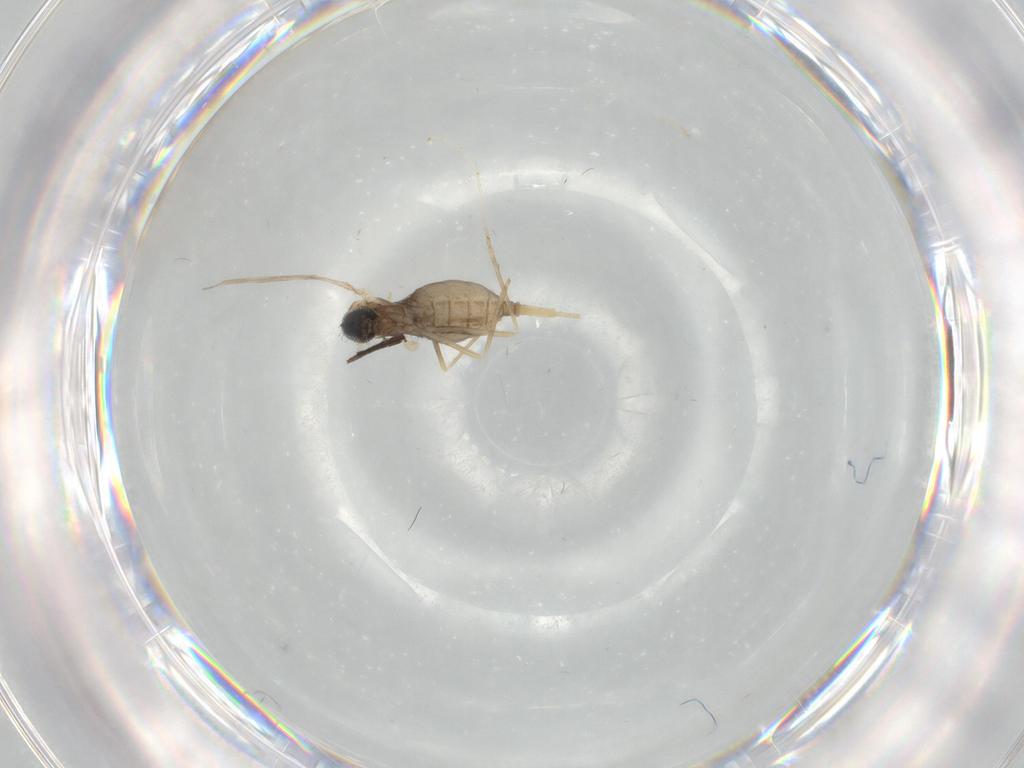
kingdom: Animalia
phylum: Arthropoda
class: Insecta
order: Diptera
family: Cecidomyiidae
